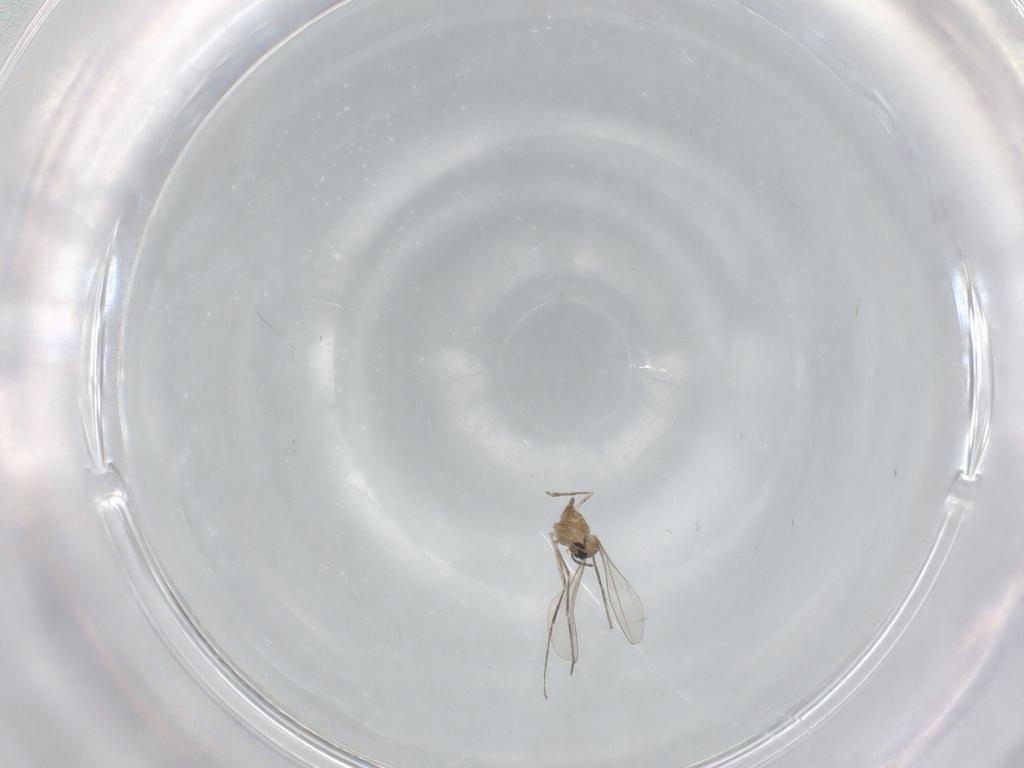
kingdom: Animalia
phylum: Arthropoda
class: Insecta
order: Diptera
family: Cecidomyiidae
